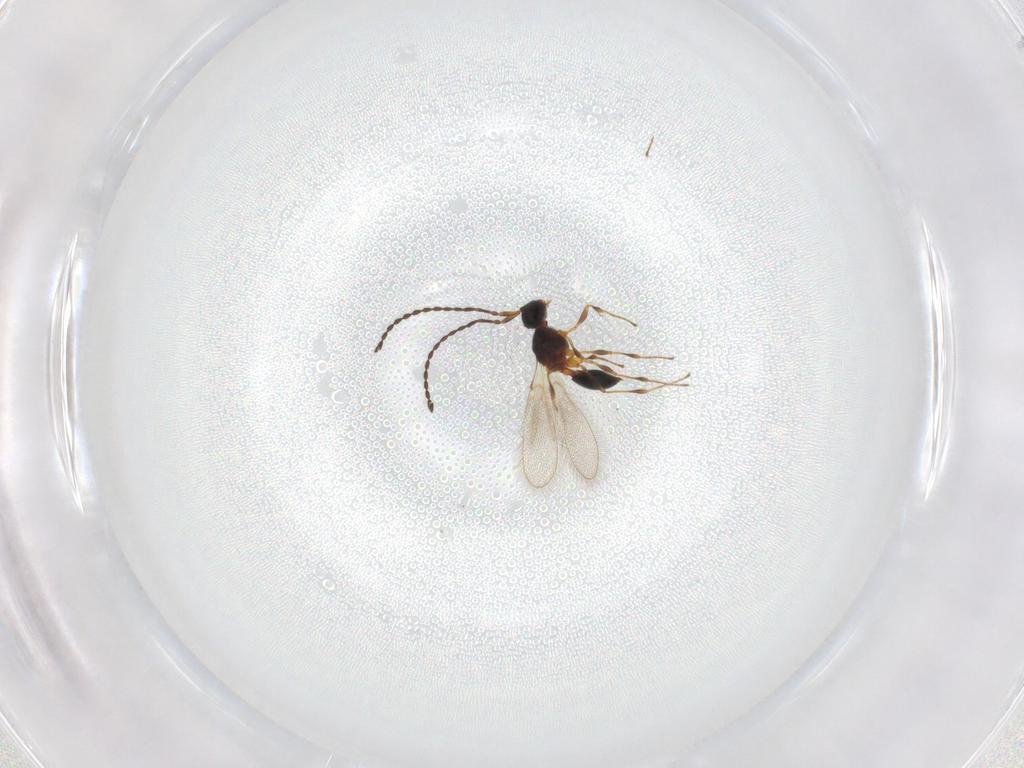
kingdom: Animalia
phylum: Arthropoda
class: Insecta
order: Hymenoptera
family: Diapriidae
